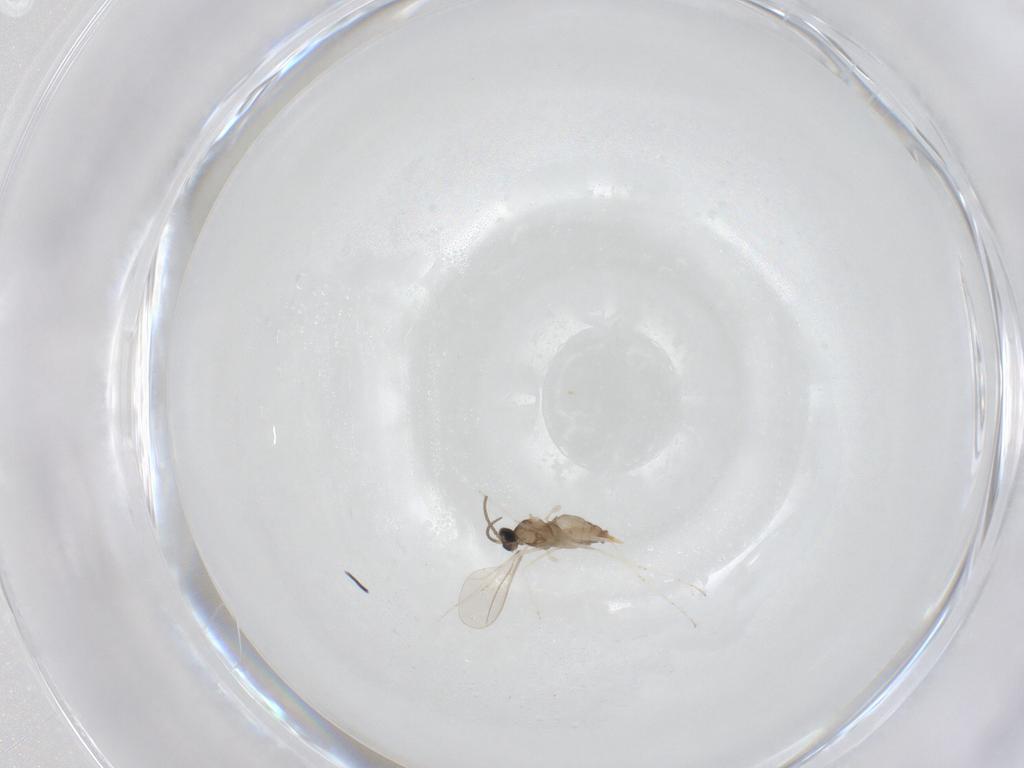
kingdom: Animalia
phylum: Arthropoda
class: Insecta
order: Diptera
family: Cecidomyiidae
